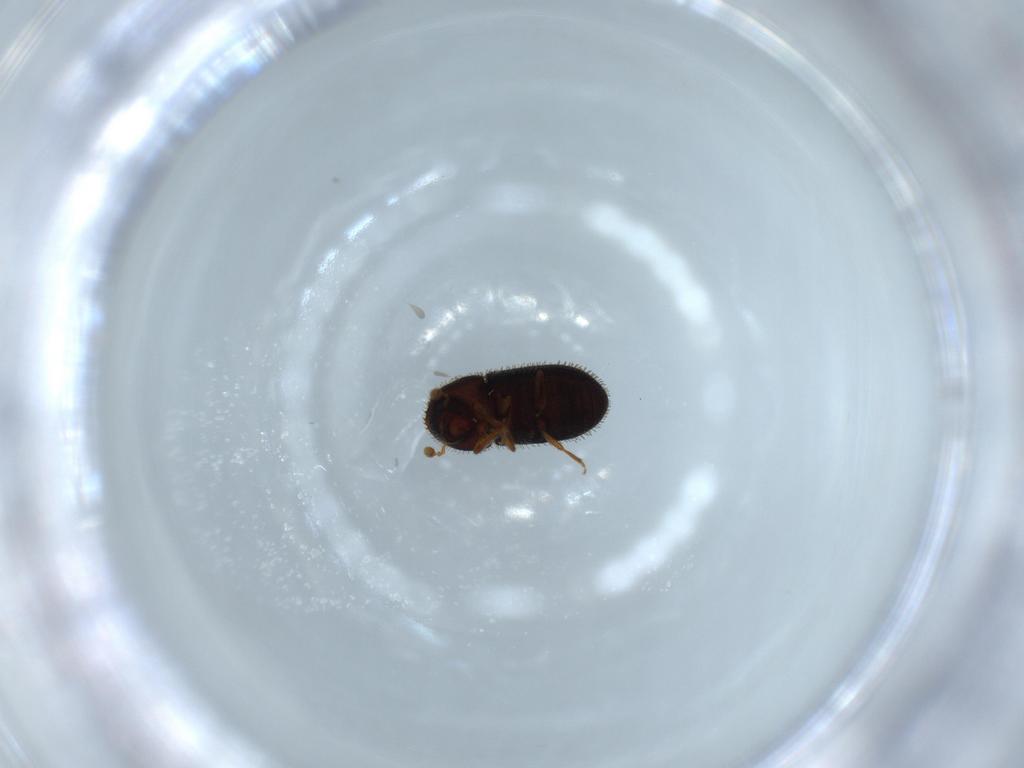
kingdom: Animalia
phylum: Arthropoda
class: Insecta
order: Coleoptera
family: Curculionidae
